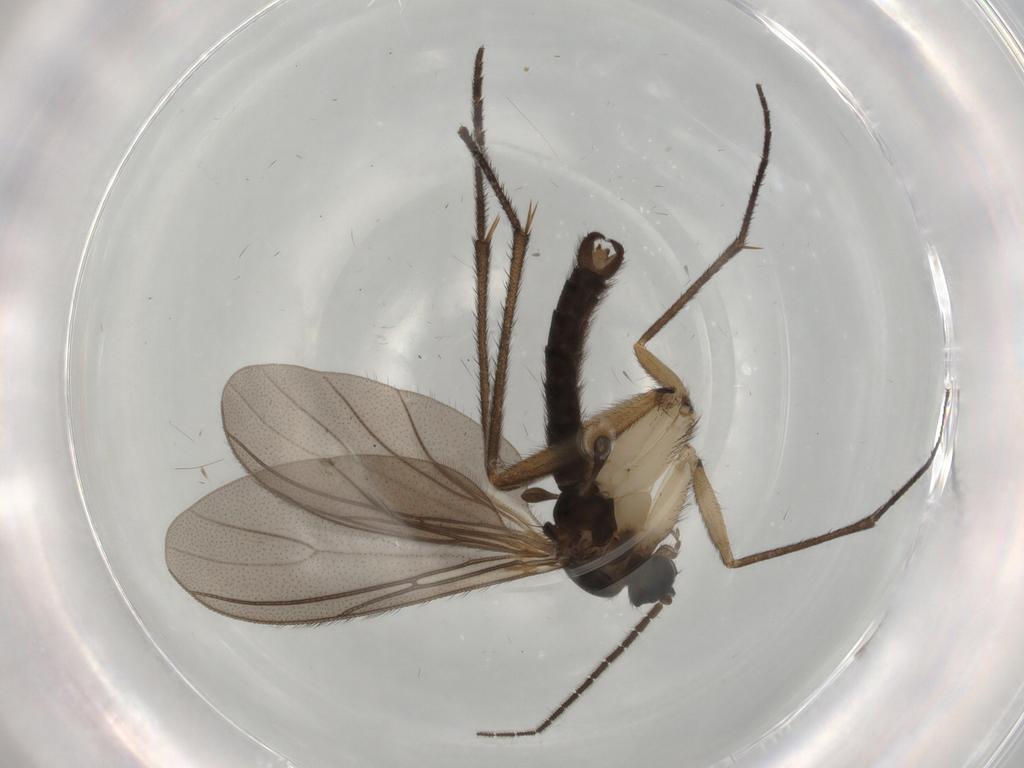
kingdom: Animalia
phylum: Arthropoda
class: Insecta
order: Diptera
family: Sciaridae
